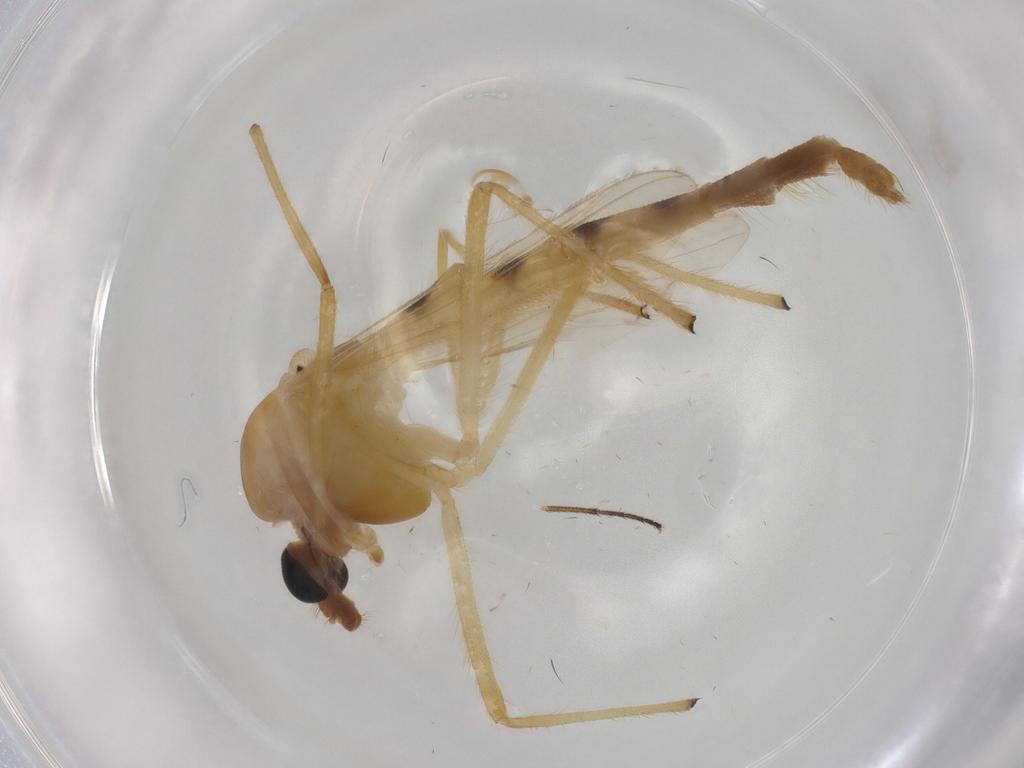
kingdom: Animalia
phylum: Arthropoda
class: Insecta
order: Diptera
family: Chironomidae
